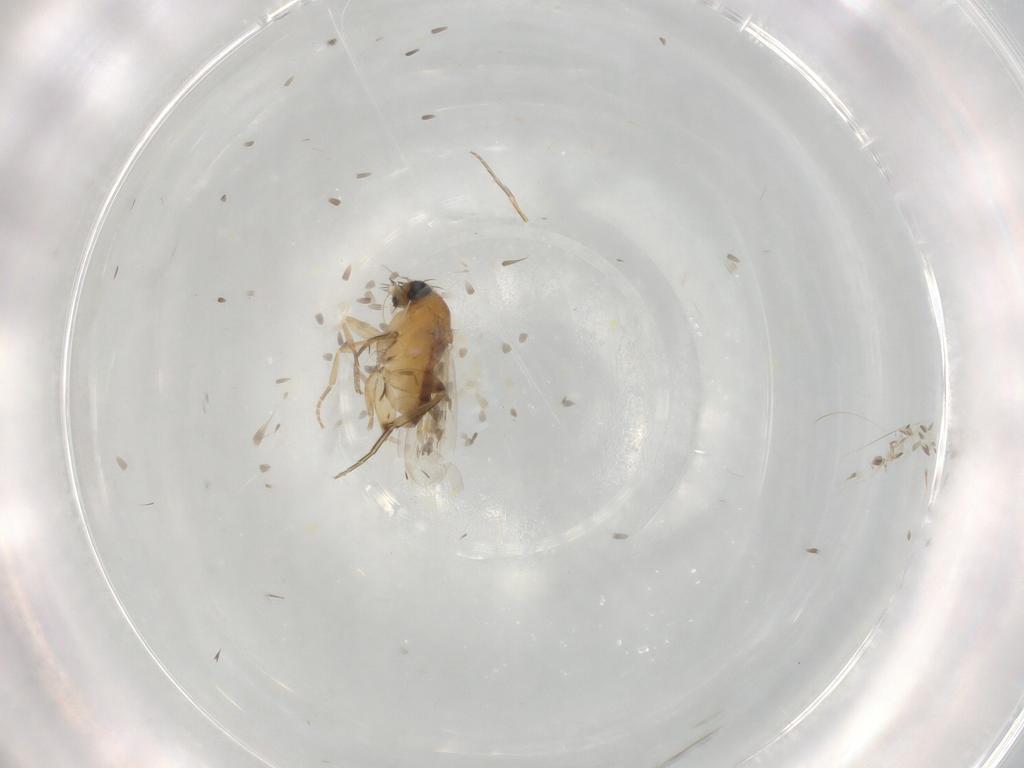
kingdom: Animalia
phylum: Arthropoda
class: Insecta
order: Diptera
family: Phoridae
